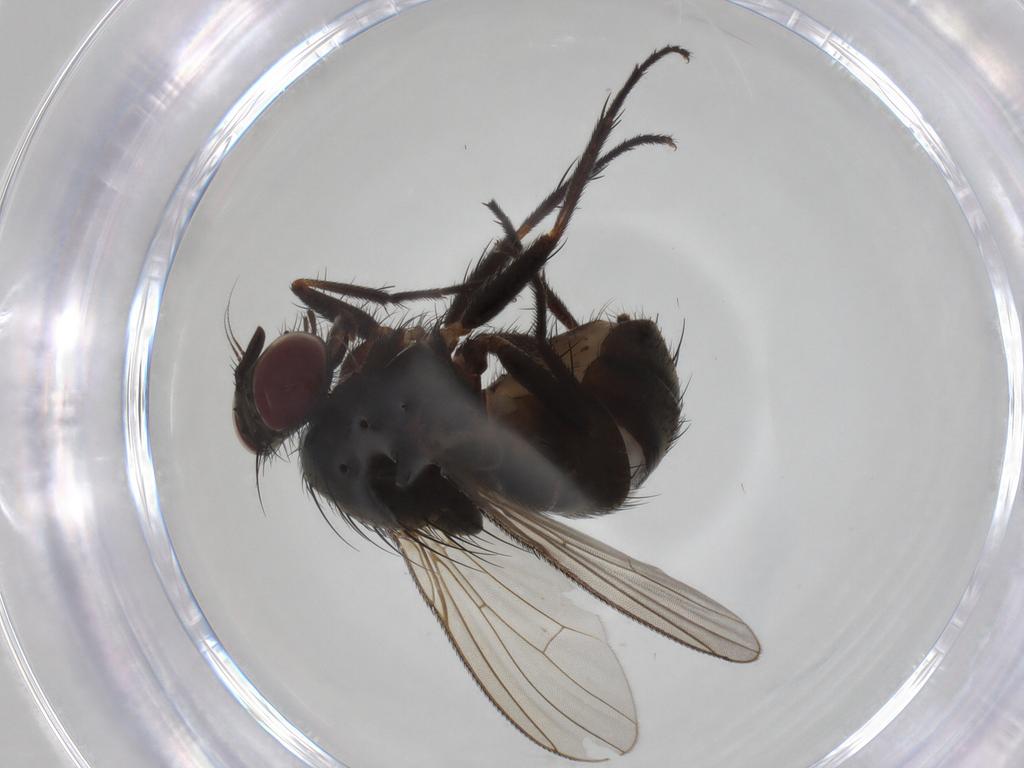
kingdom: Animalia
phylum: Arthropoda
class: Insecta
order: Diptera
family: Muscidae
